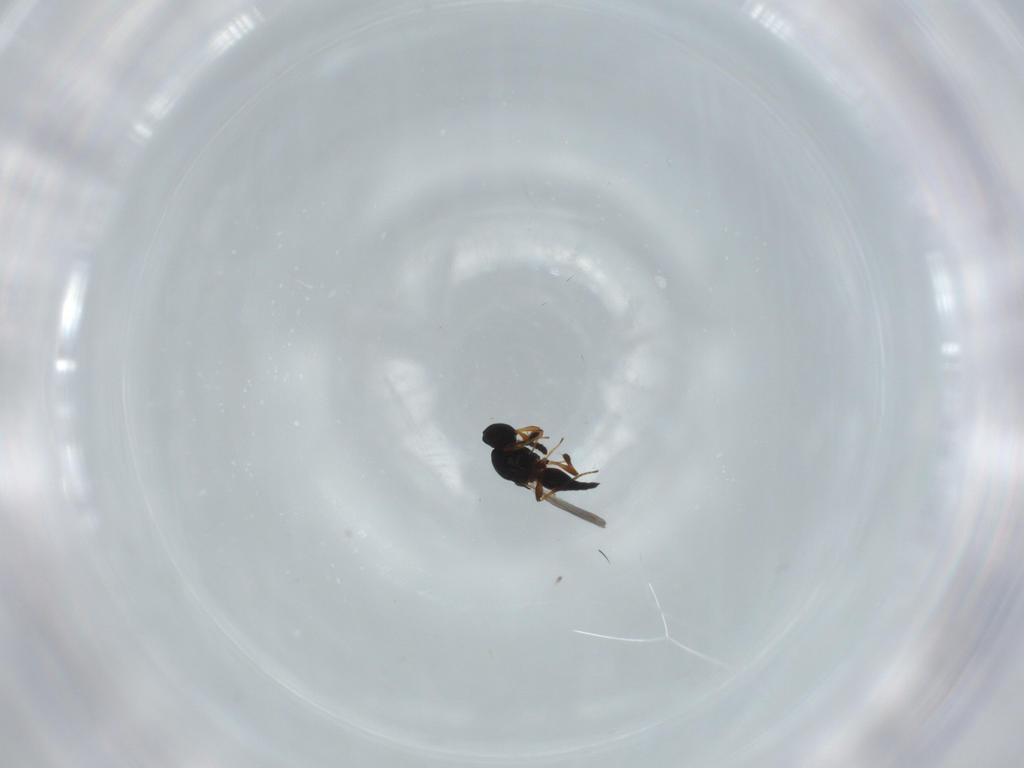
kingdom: Animalia
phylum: Arthropoda
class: Insecta
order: Hymenoptera
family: Platygastridae
